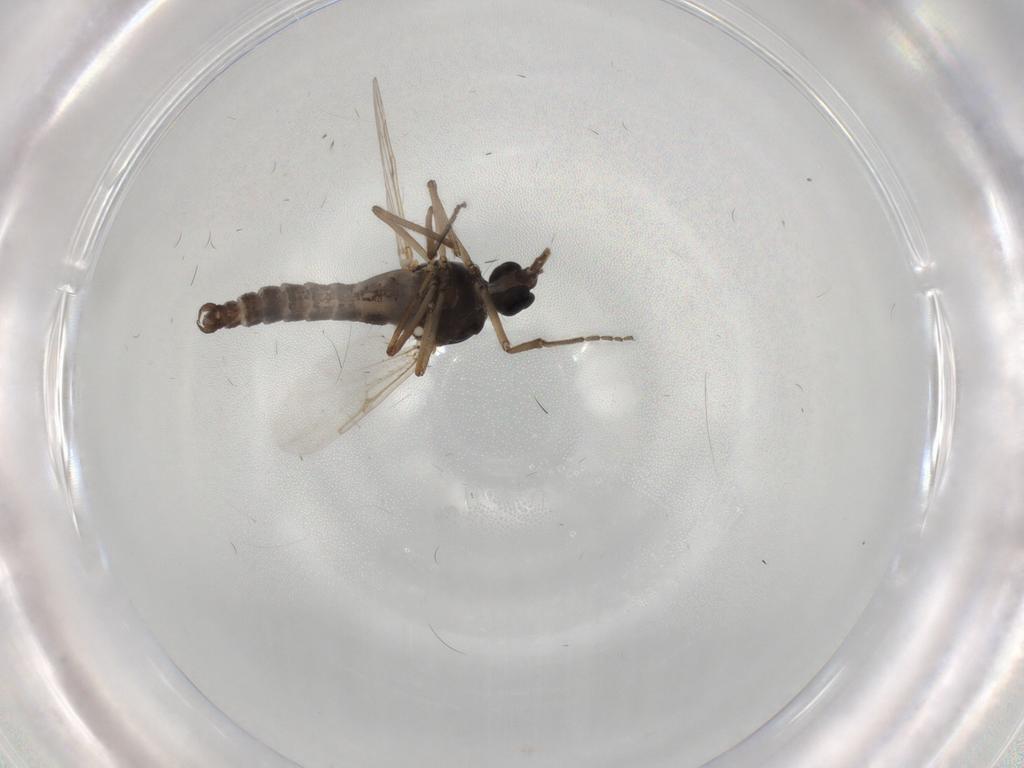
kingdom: Animalia
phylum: Arthropoda
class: Insecta
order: Diptera
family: Ceratopogonidae
